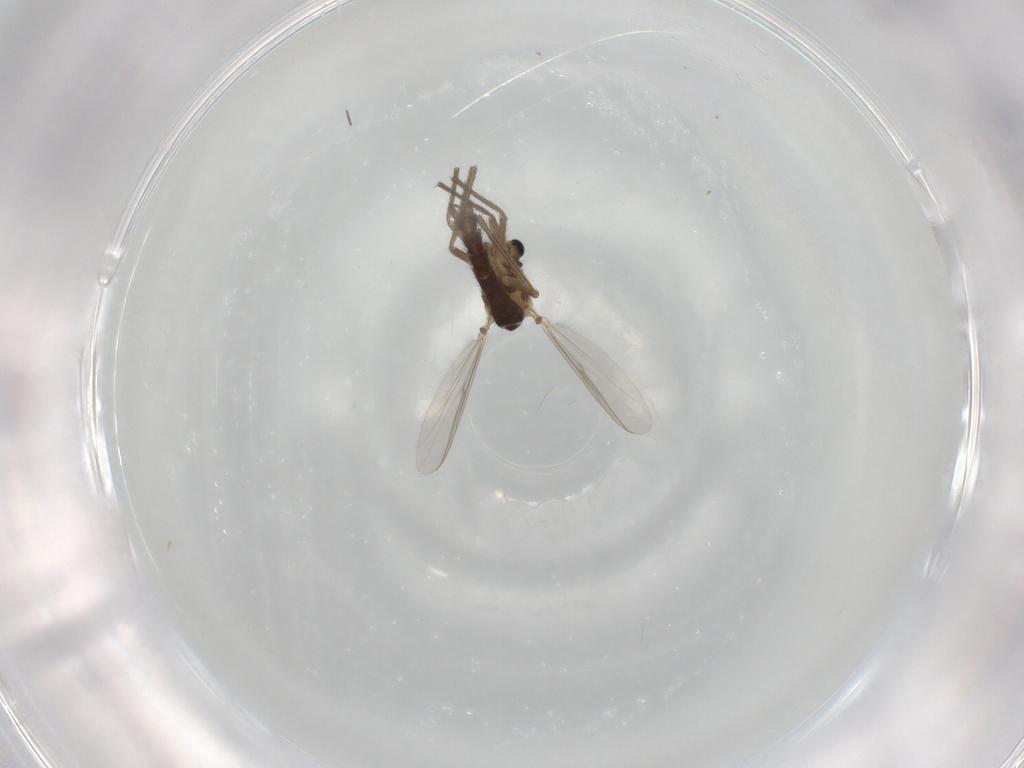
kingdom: Animalia
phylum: Arthropoda
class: Insecta
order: Diptera
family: Chironomidae
